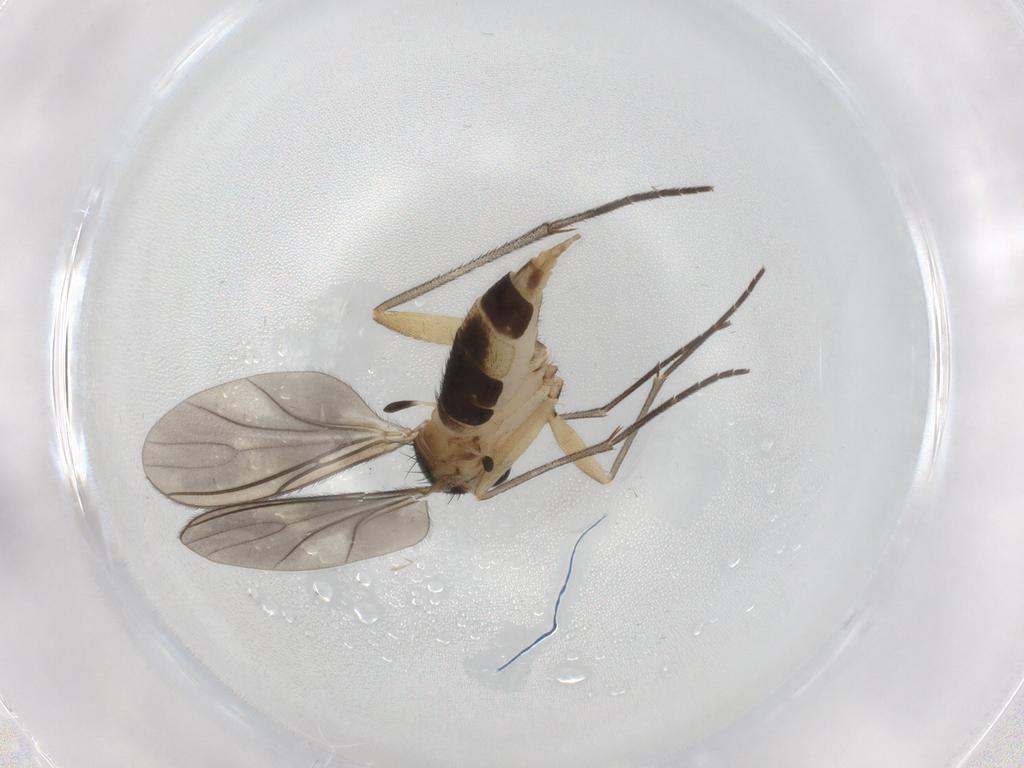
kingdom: Animalia
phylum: Arthropoda
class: Insecta
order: Diptera
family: Sciaridae
